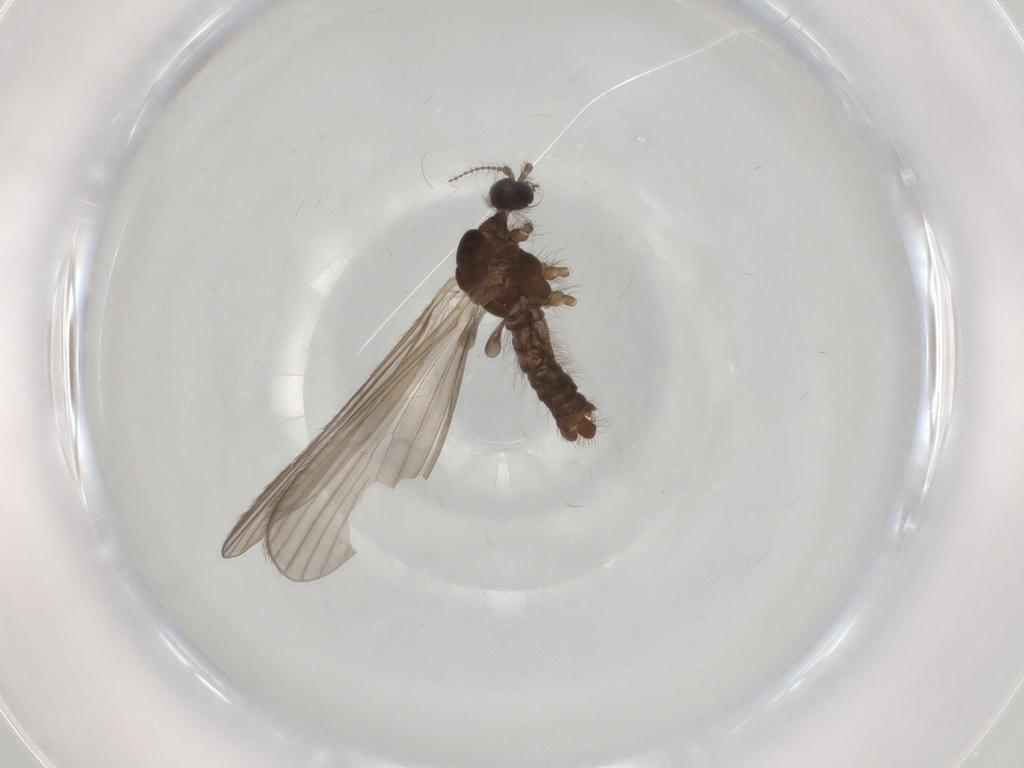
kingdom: Animalia
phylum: Arthropoda
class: Insecta
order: Diptera
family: Limoniidae
